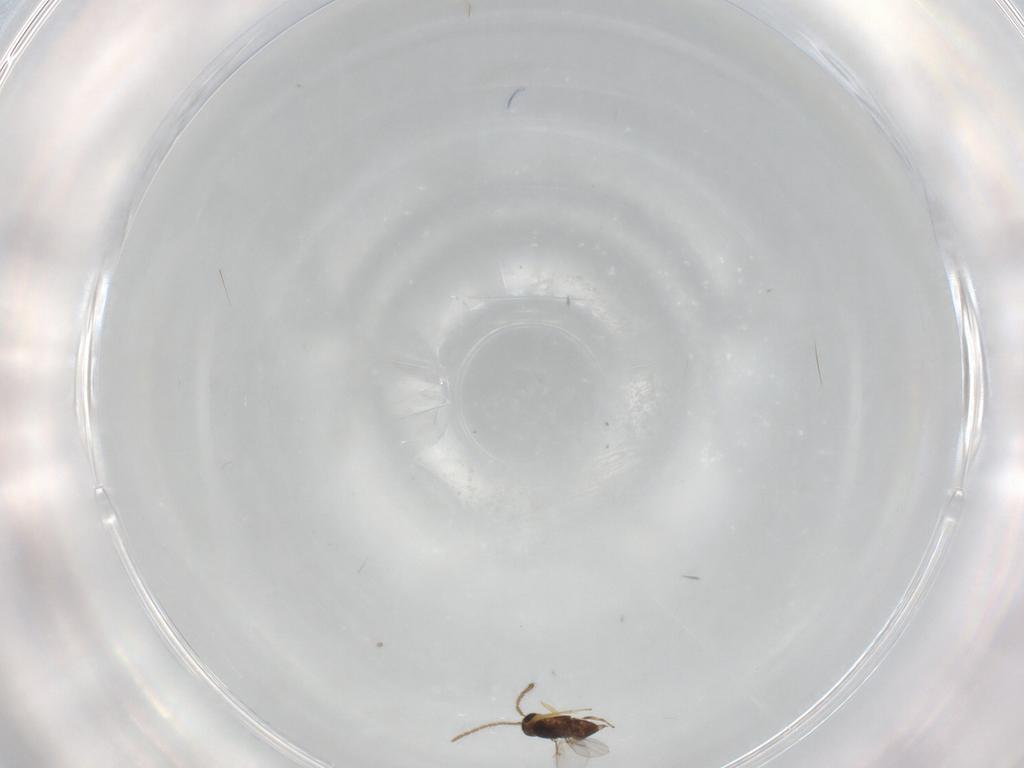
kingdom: Animalia
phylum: Arthropoda
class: Insecta
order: Hymenoptera
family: Encyrtidae
